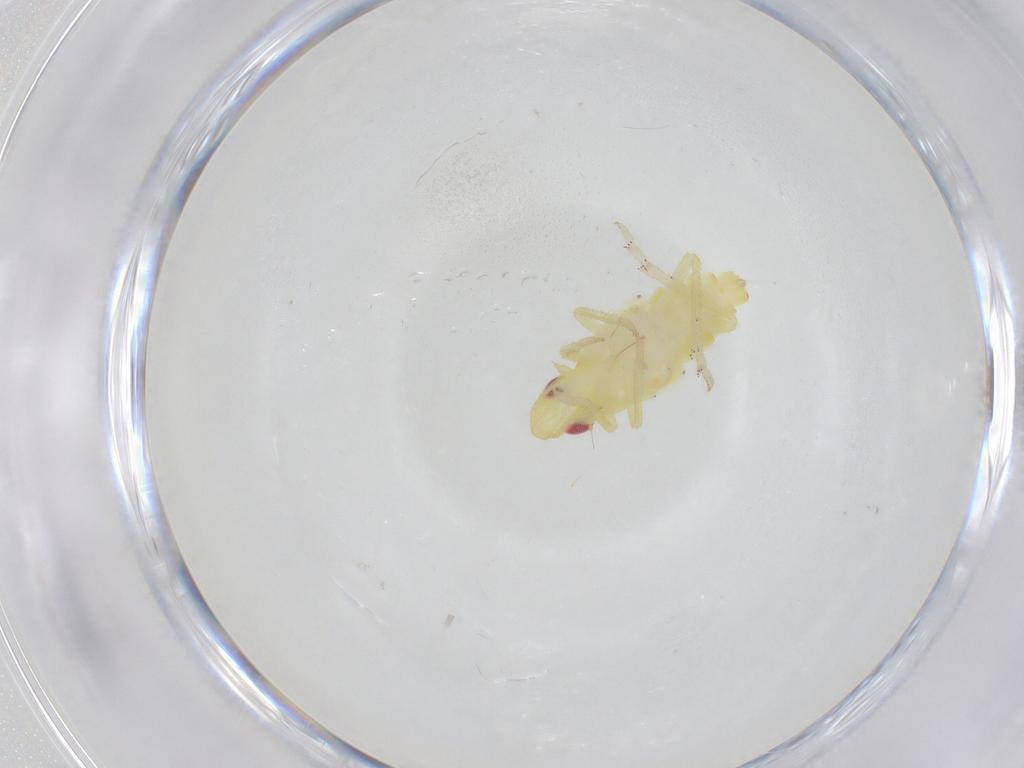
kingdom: Animalia
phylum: Arthropoda
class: Insecta
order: Hemiptera
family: Tropiduchidae
